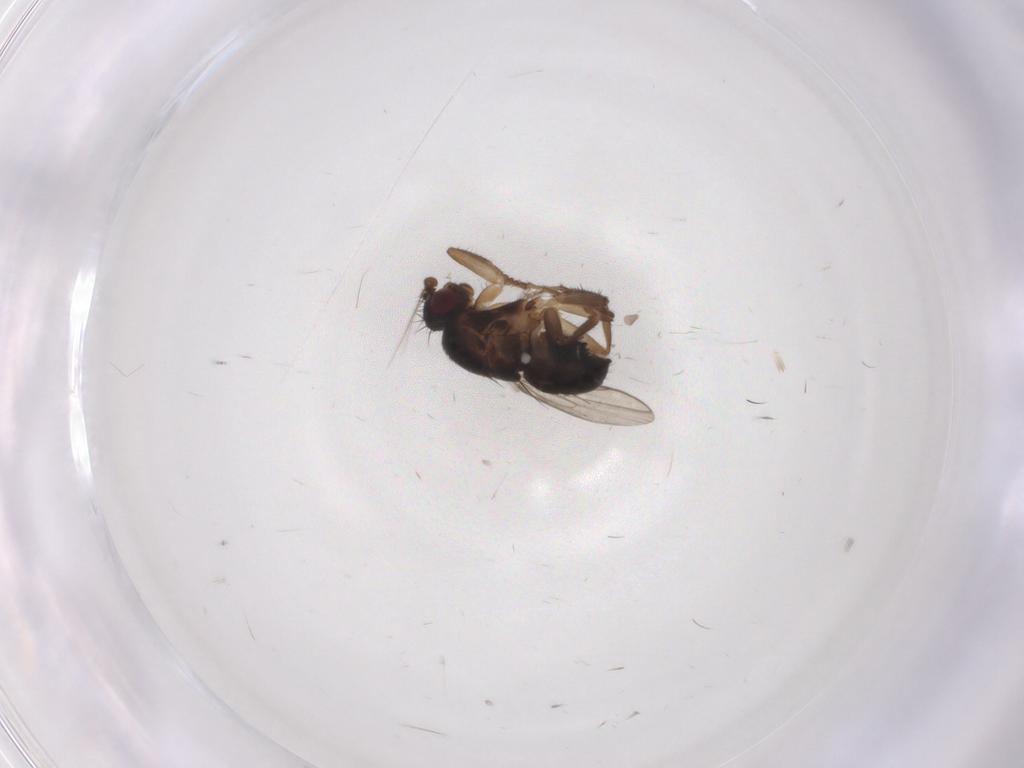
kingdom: Animalia
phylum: Arthropoda
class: Insecta
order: Diptera
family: Sphaeroceridae
